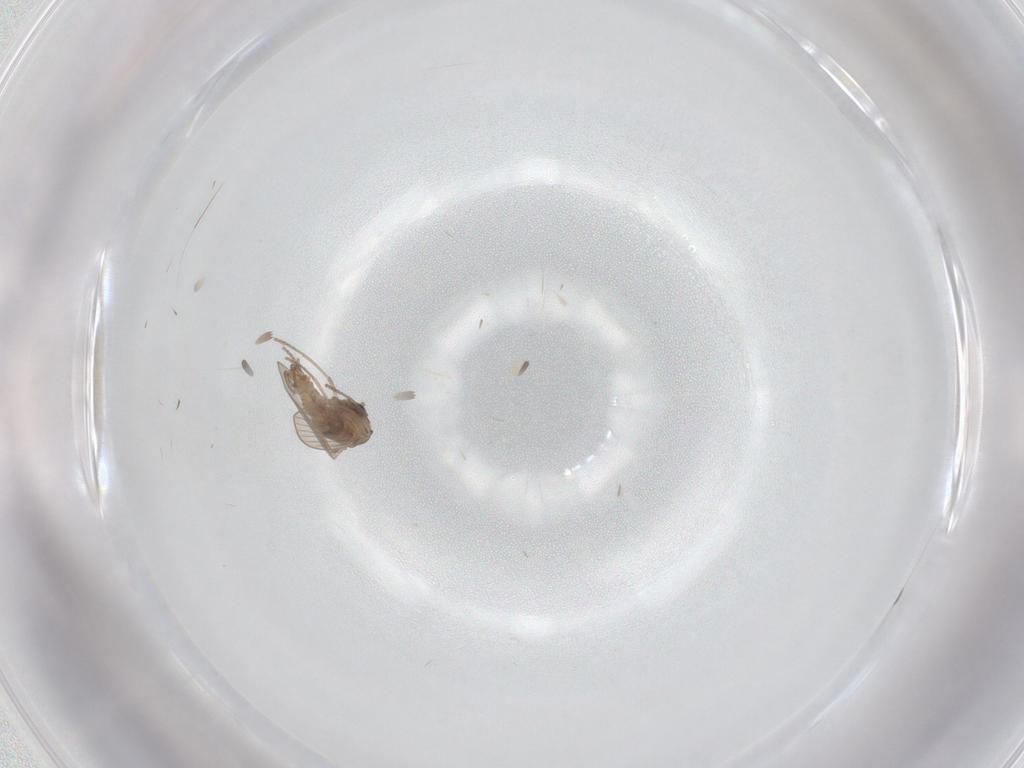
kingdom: Animalia
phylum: Arthropoda
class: Insecta
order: Diptera
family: Psychodidae
